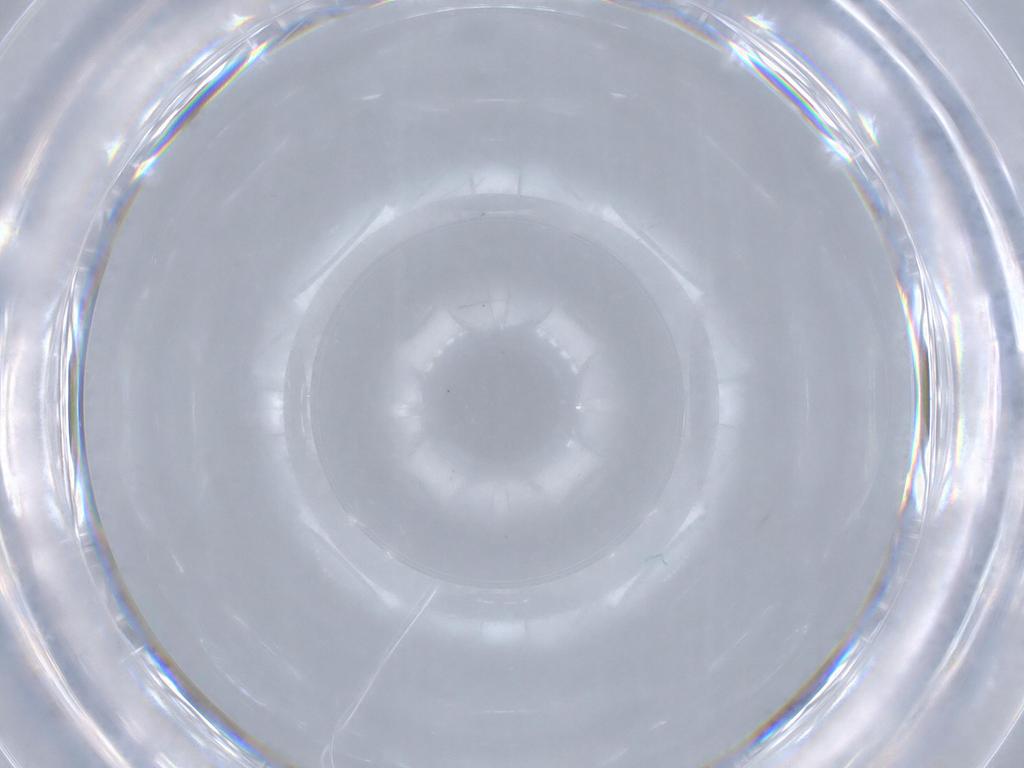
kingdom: Animalia
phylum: Arthropoda
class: Insecta
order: Diptera
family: Cecidomyiidae
